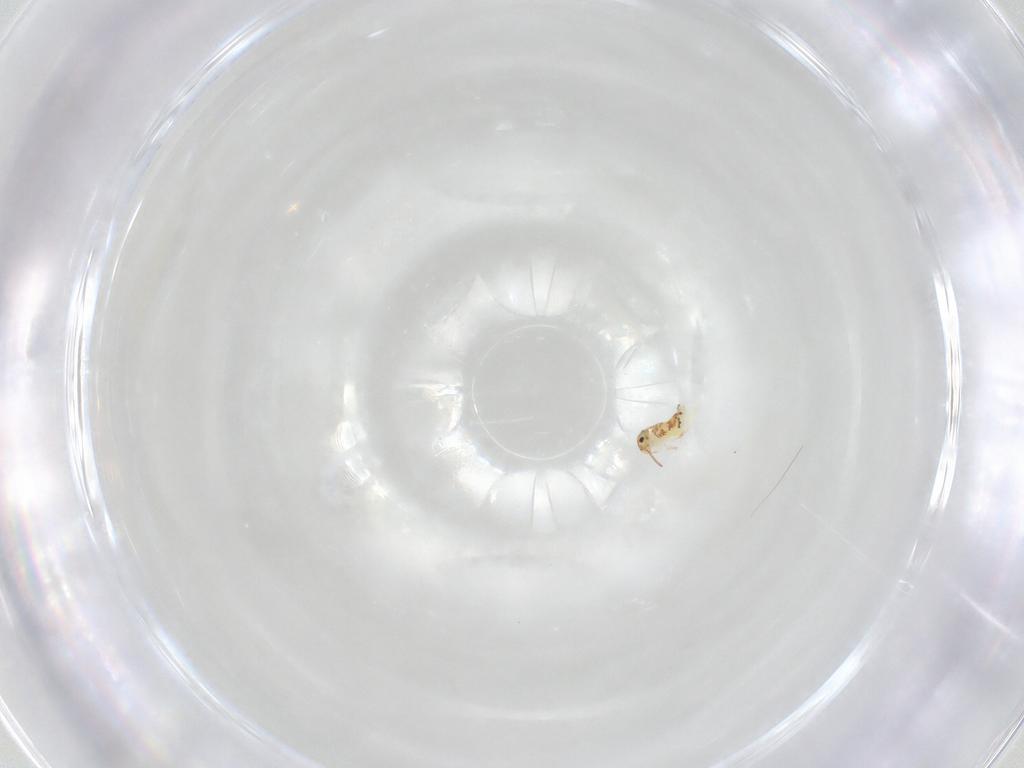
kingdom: Animalia
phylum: Arthropoda
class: Collembola
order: Symphypleona
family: Bourletiellidae
